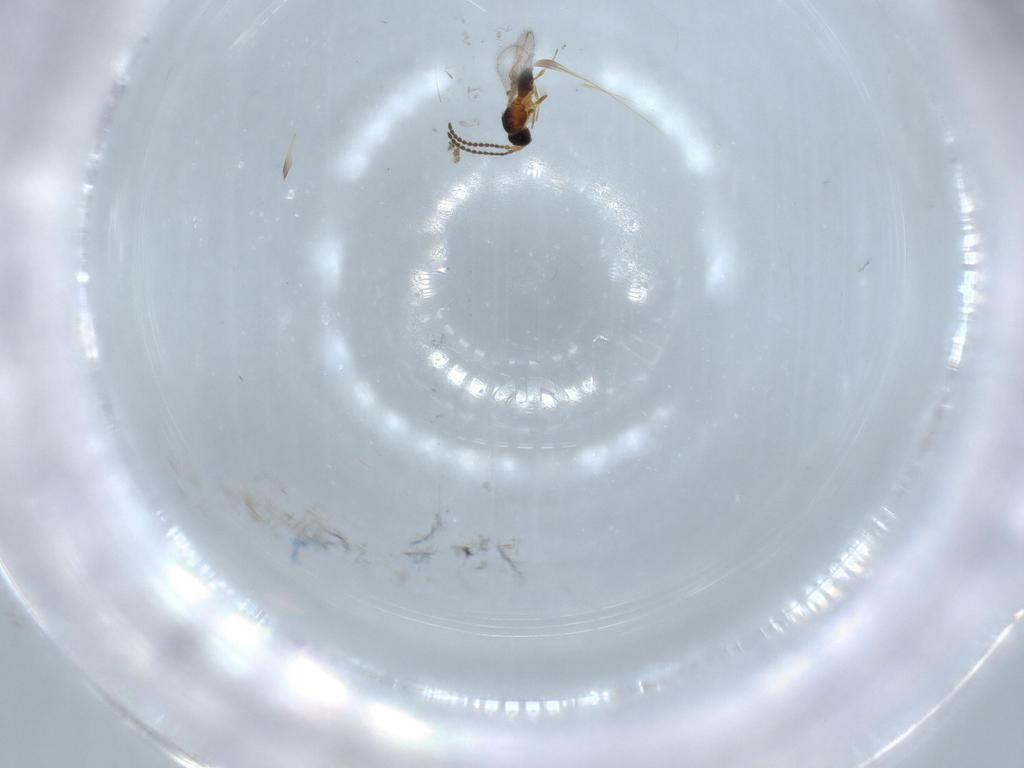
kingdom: Animalia
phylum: Arthropoda
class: Insecta
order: Hymenoptera
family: Diapriidae
